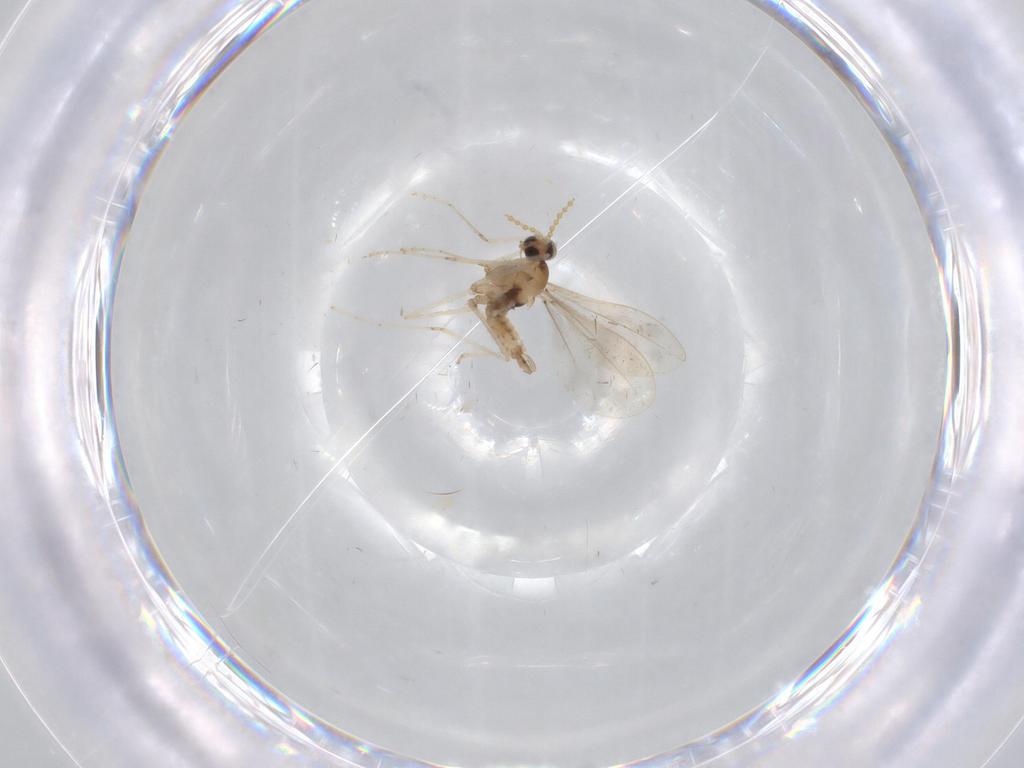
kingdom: Animalia
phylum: Arthropoda
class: Insecta
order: Diptera
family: Cecidomyiidae
